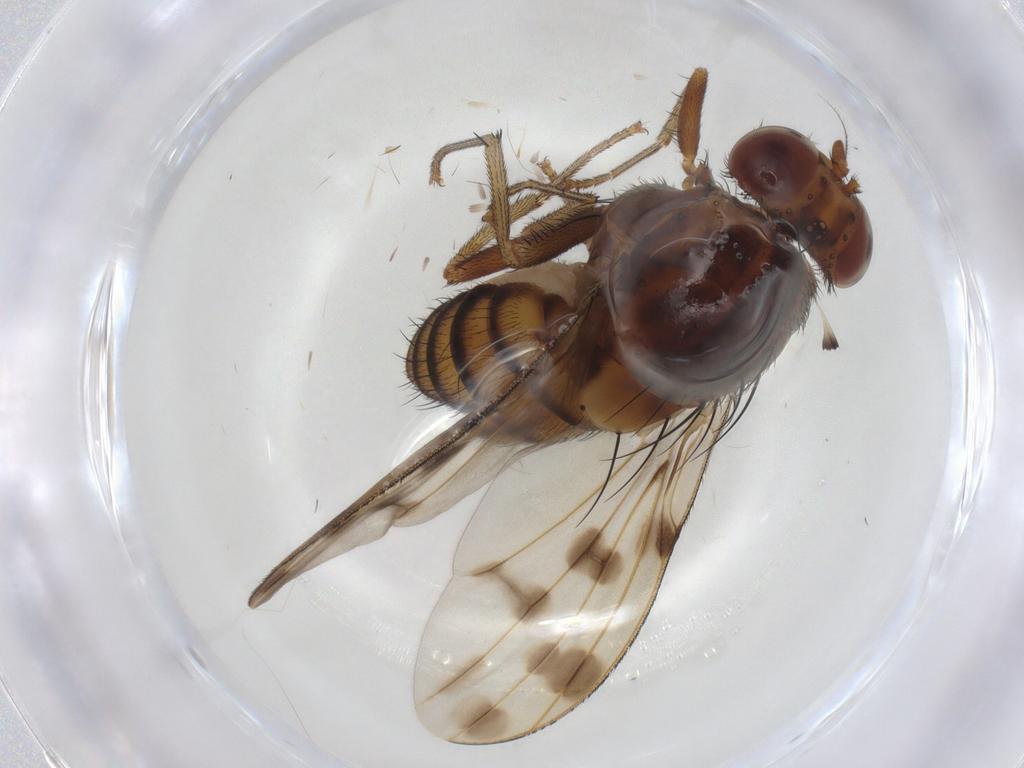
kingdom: Animalia
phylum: Arthropoda
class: Insecta
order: Diptera
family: Lauxaniidae
